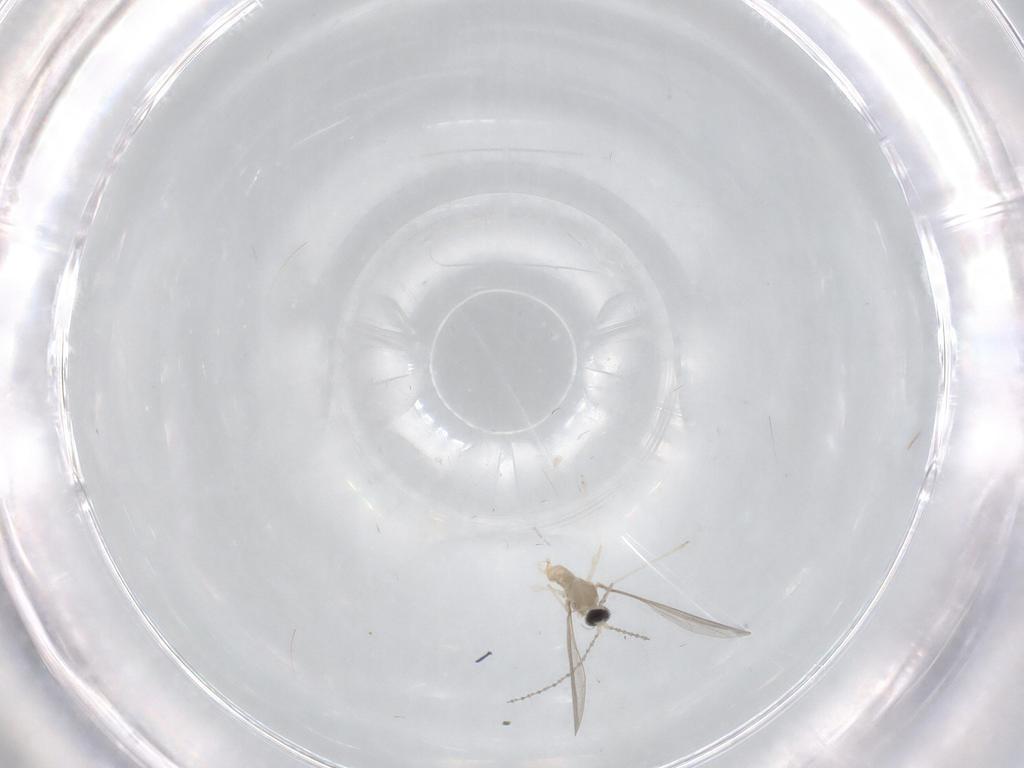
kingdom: Animalia
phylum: Arthropoda
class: Insecta
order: Diptera
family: Cecidomyiidae
